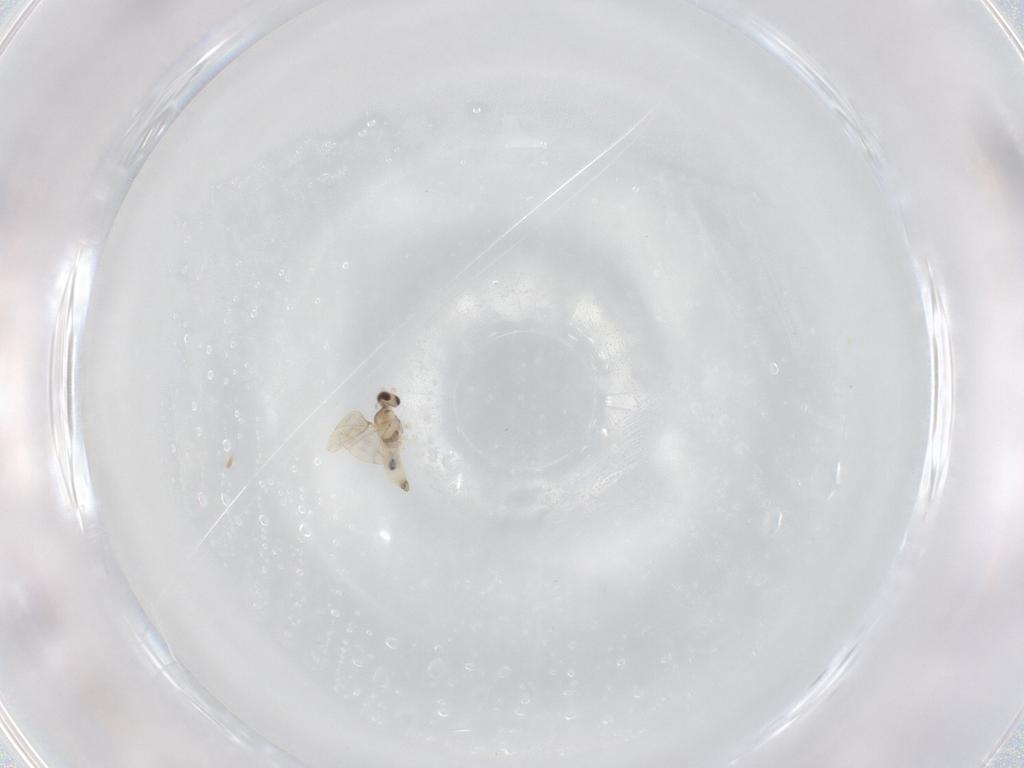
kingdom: Animalia
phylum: Arthropoda
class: Insecta
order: Diptera
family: Cecidomyiidae
